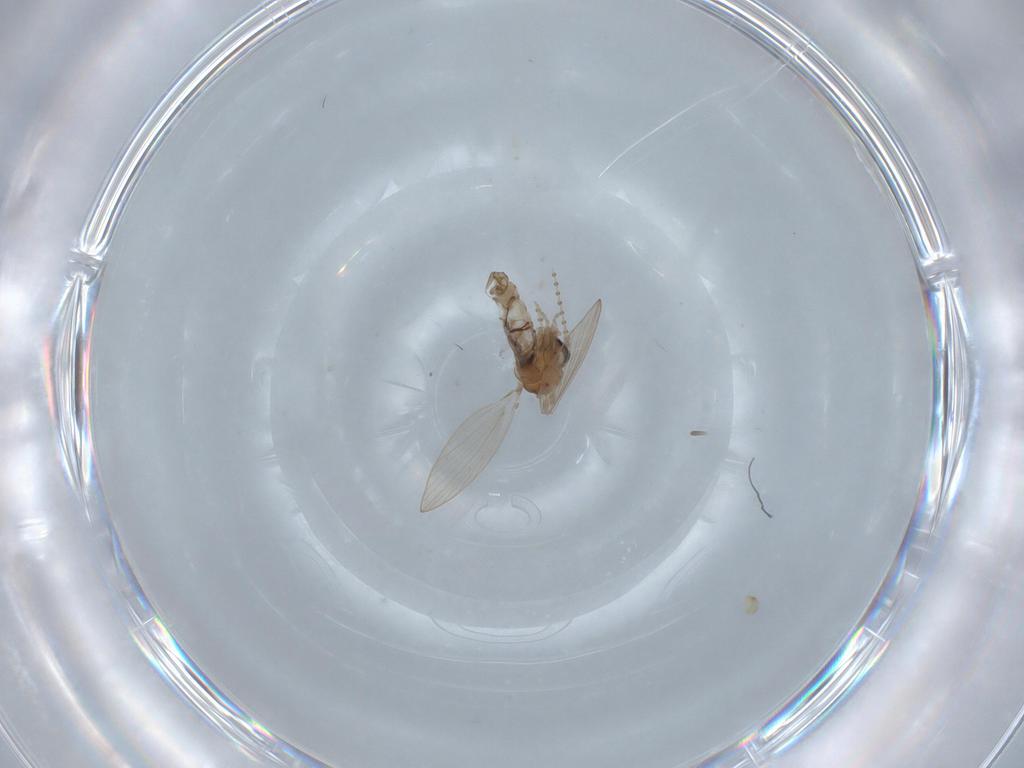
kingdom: Animalia
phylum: Arthropoda
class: Insecta
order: Diptera
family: Psychodidae
